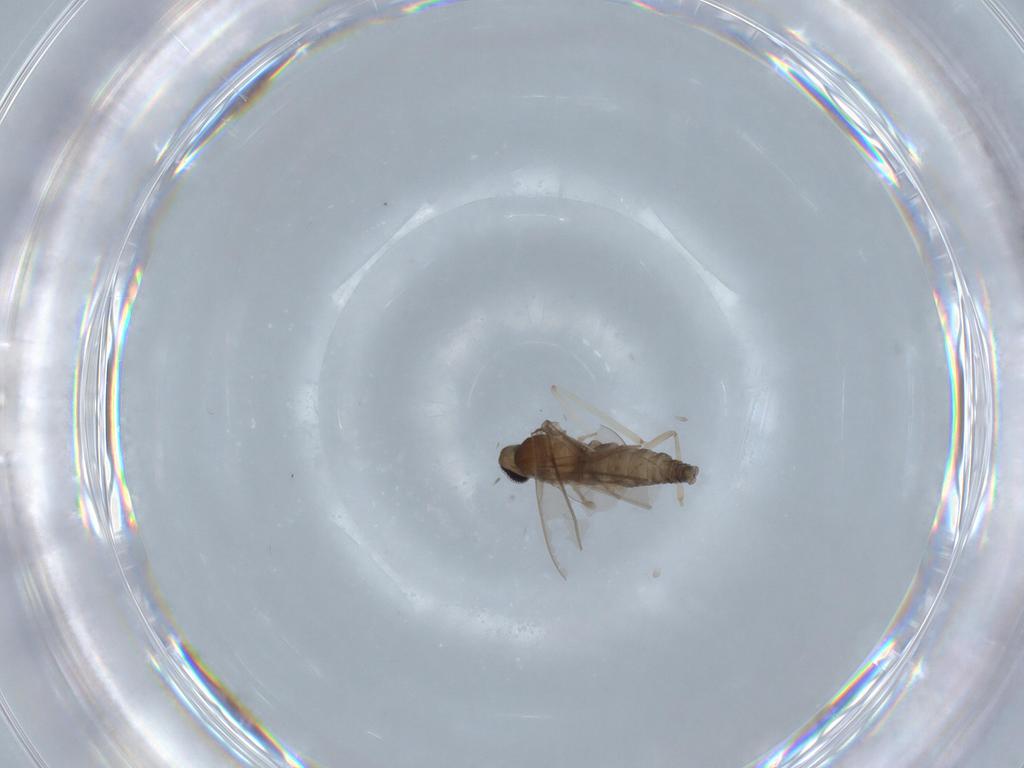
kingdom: Animalia
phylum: Arthropoda
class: Insecta
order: Diptera
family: Cecidomyiidae
